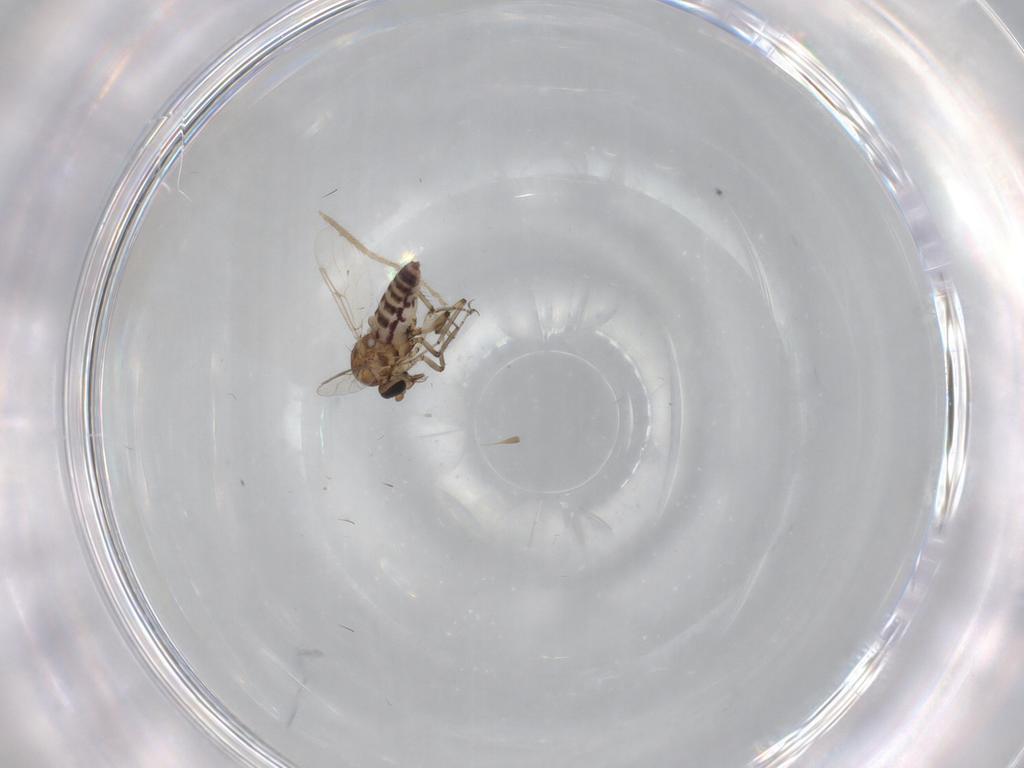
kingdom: Animalia
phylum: Arthropoda
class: Insecta
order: Diptera
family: Ceratopogonidae
